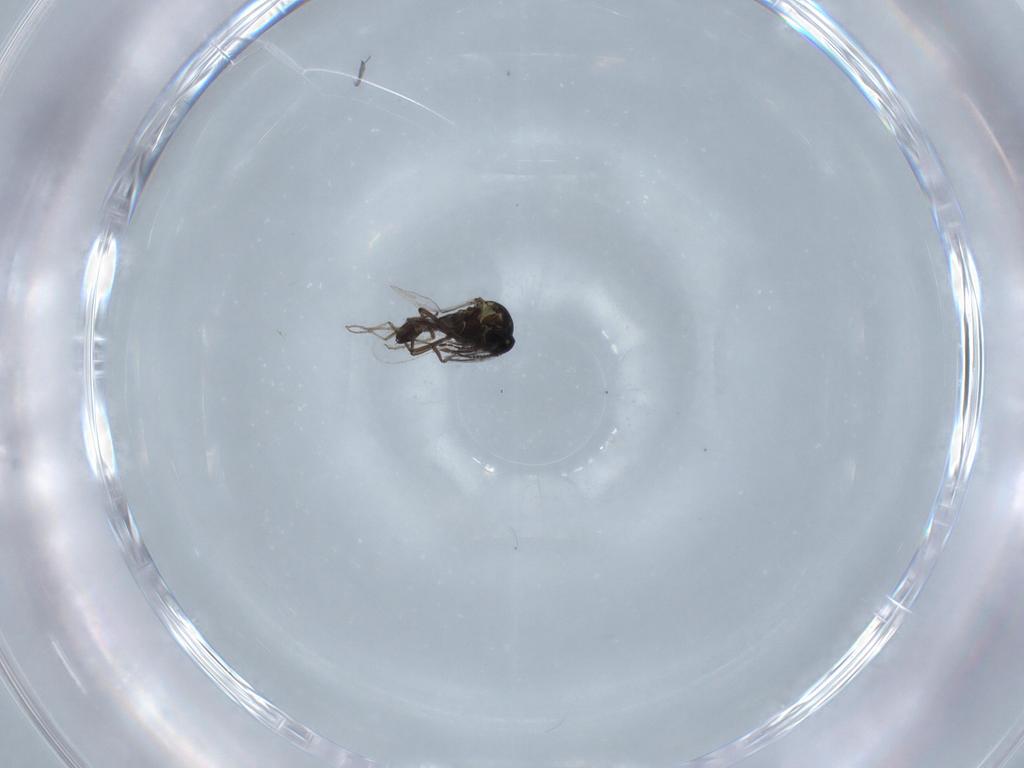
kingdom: Animalia
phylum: Arthropoda
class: Insecta
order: Diptera
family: Ceratopogonidae
